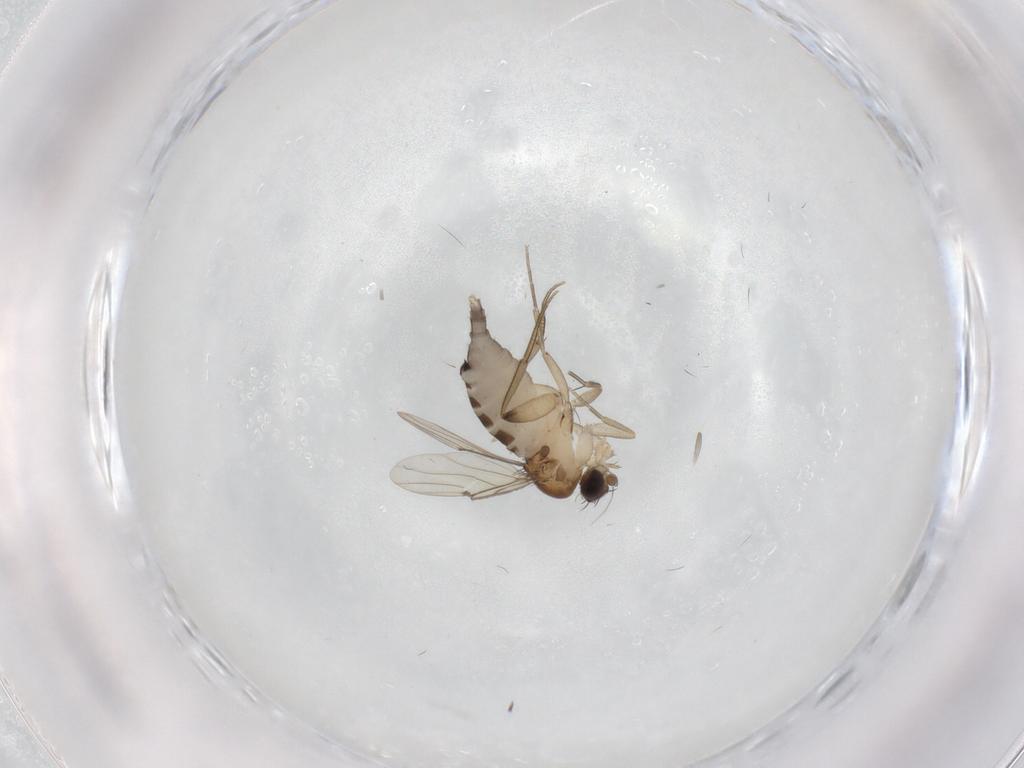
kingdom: Animalia
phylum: Arthropoda
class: Insecta
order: Diptera
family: Phoridae
